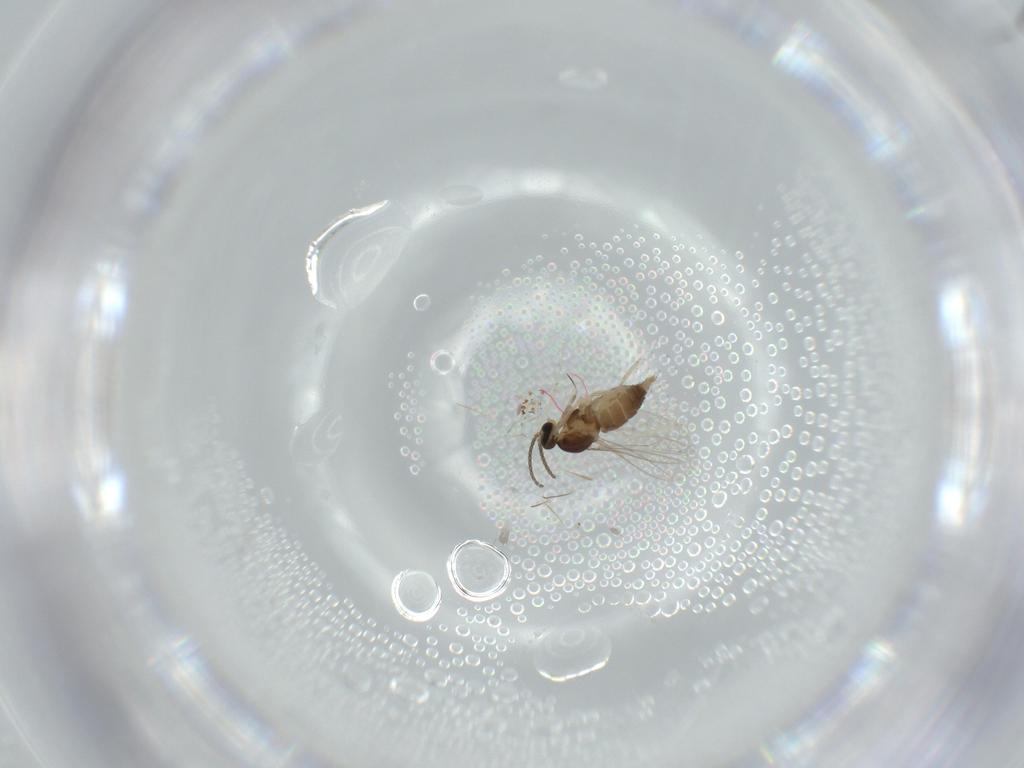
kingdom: Animalia
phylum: Arthropoda
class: Insecta
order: Diptera
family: Cecidomyiidae
